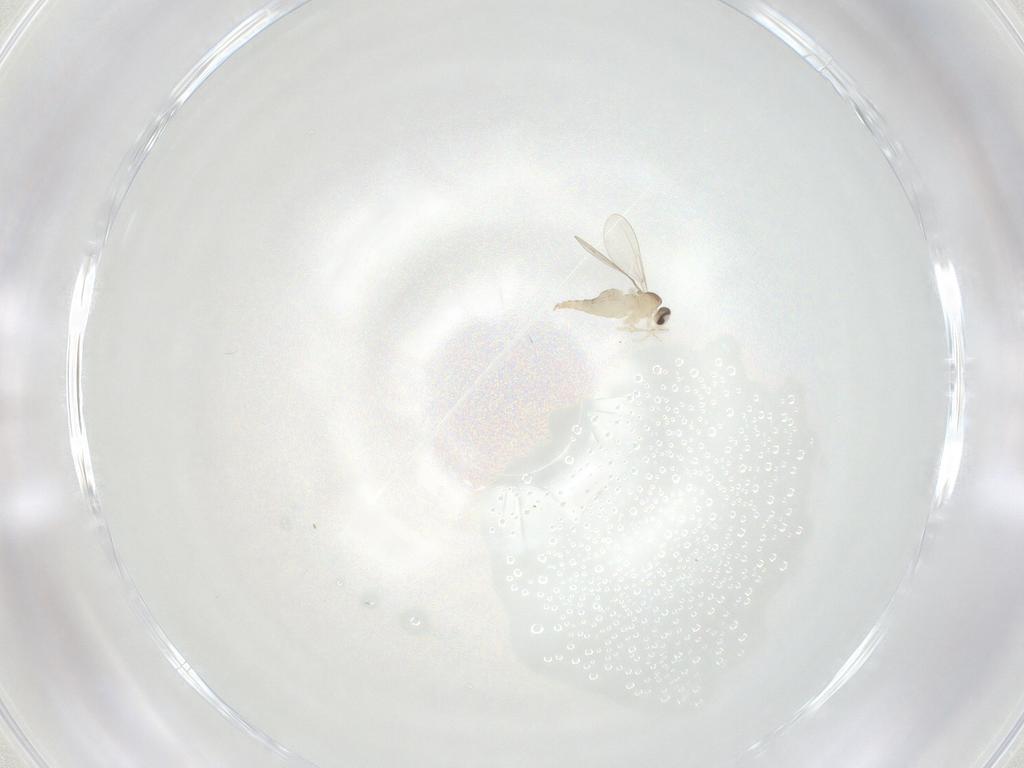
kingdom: Animalia
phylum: Arthropoda
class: Insecta
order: Diptera
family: Cecidomyiidae
